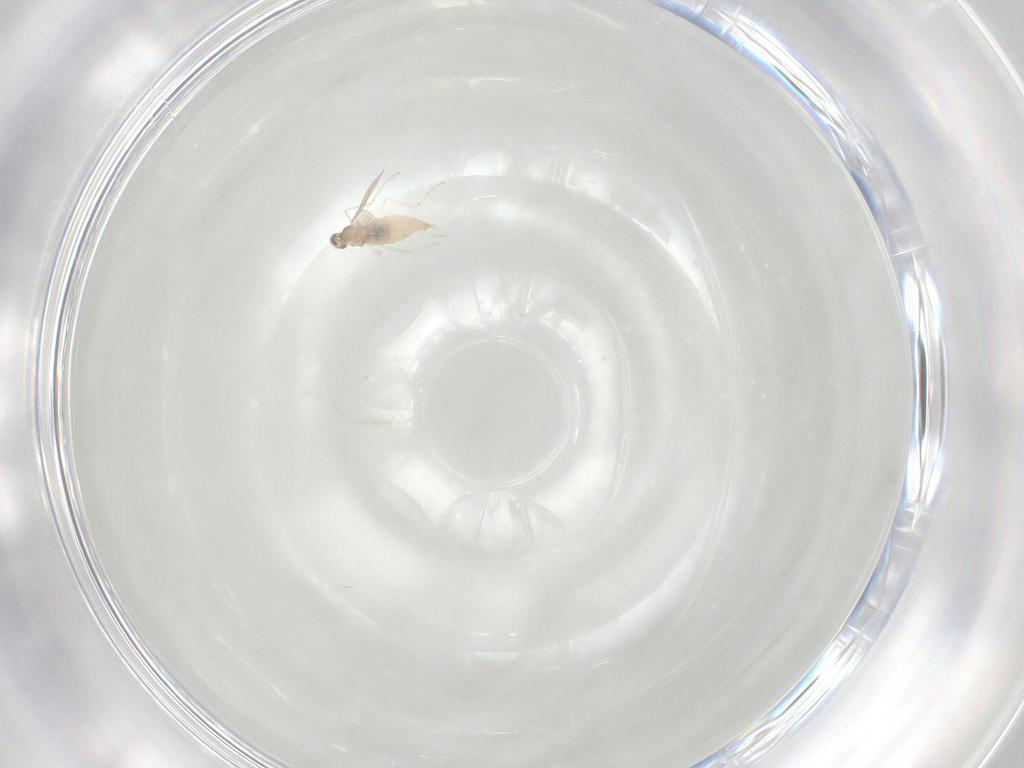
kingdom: Animalia
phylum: Arthropoda
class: Insecta
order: Diptera
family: Cecidomyiidae
